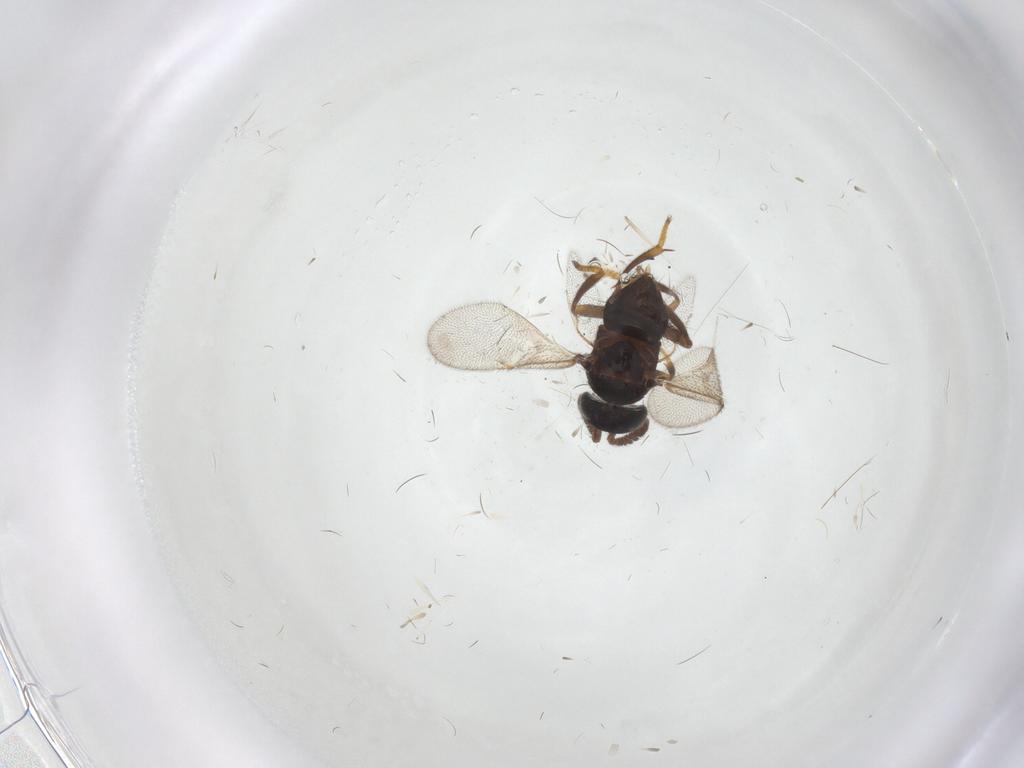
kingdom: Animalia
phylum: Arthropoda
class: Insecta
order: Hymenoptera
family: Encyrtidae
